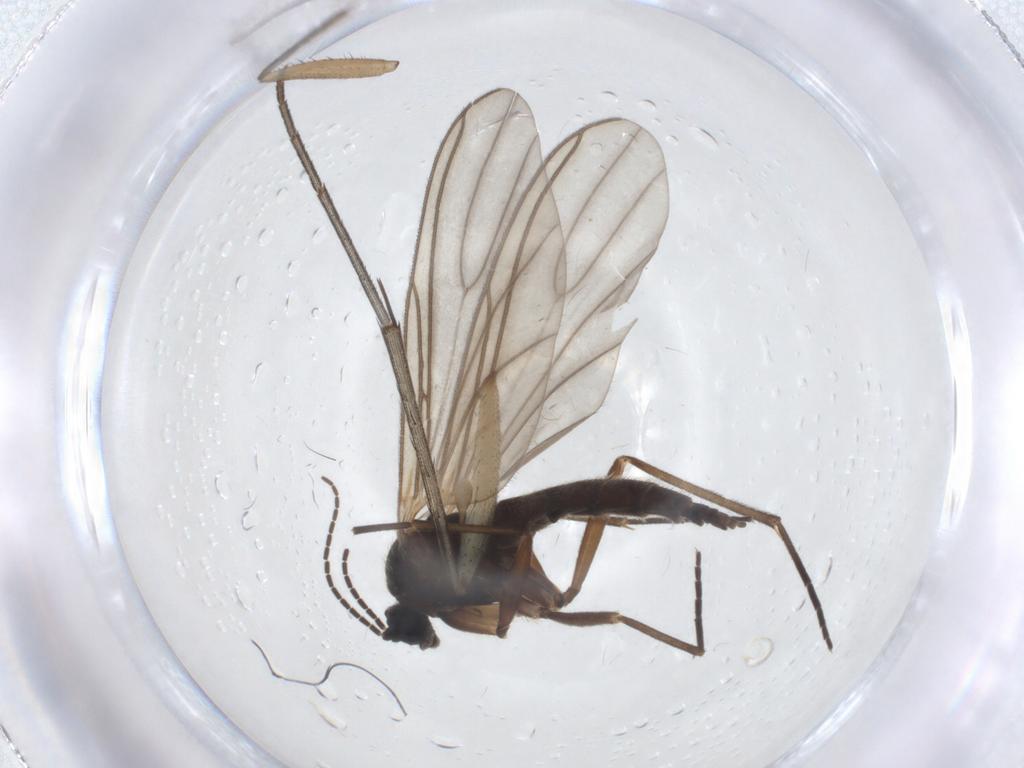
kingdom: Animalia
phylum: Arthropoda
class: Insecta
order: Diptera
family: Sciaridae
